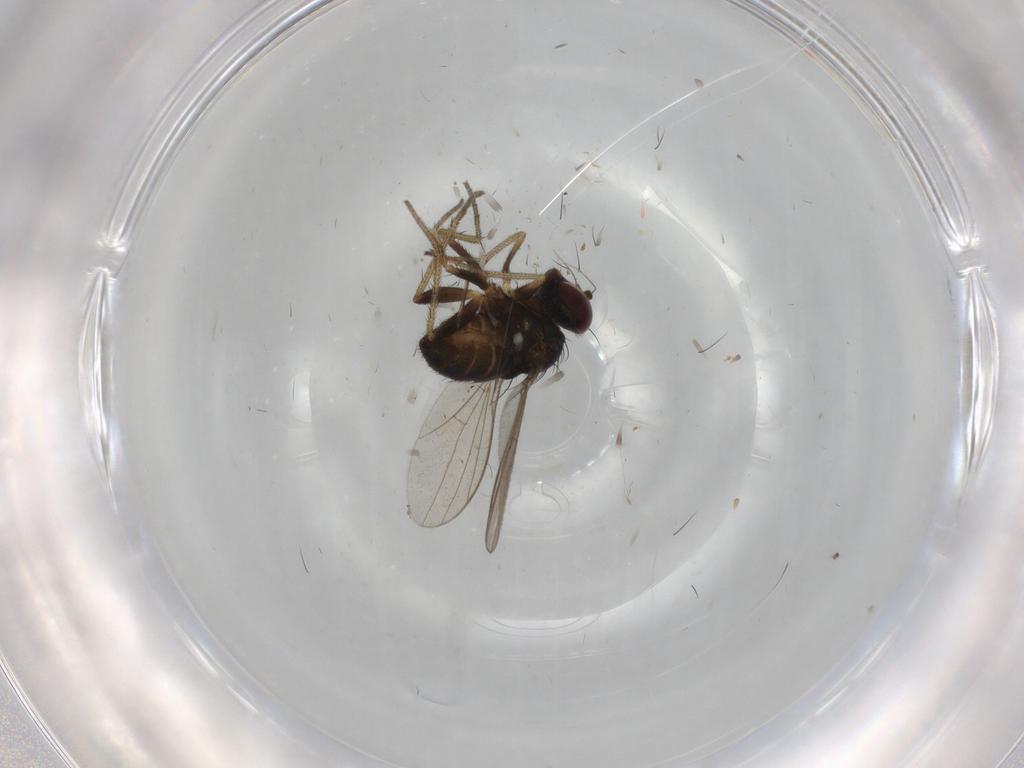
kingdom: Animalia
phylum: Arthropoda
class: Insecta
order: Diptera
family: Dolichopodidae
